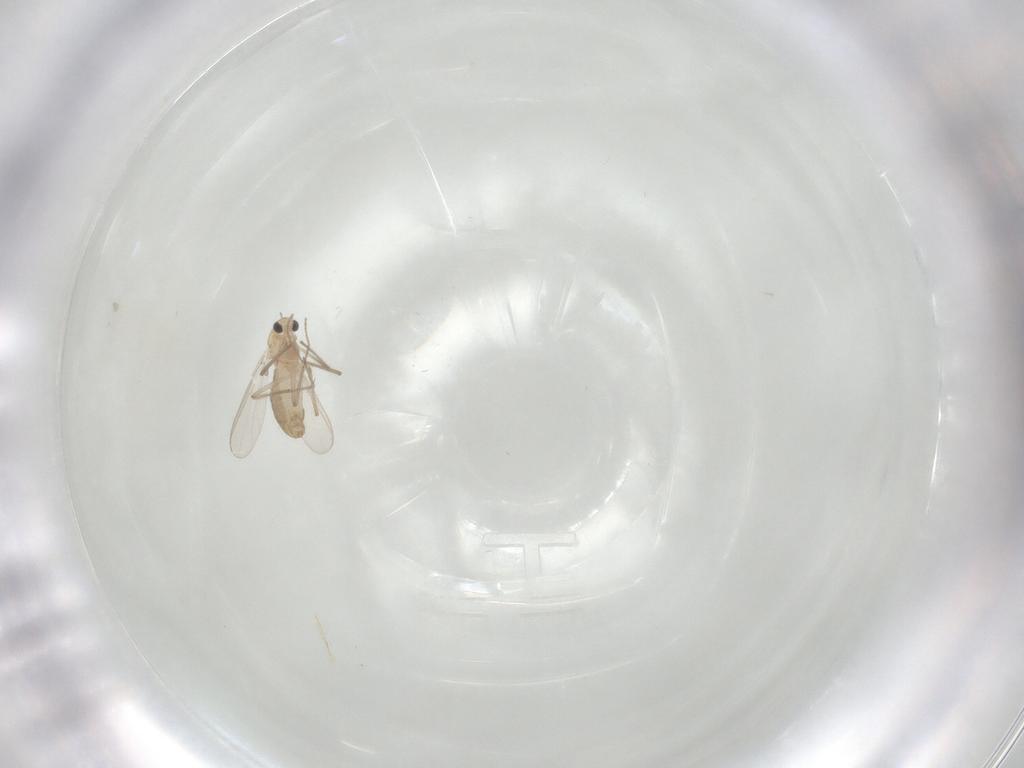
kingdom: Animalia
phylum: Arthropoda
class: Insecta
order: Diptera
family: Chironomidae
